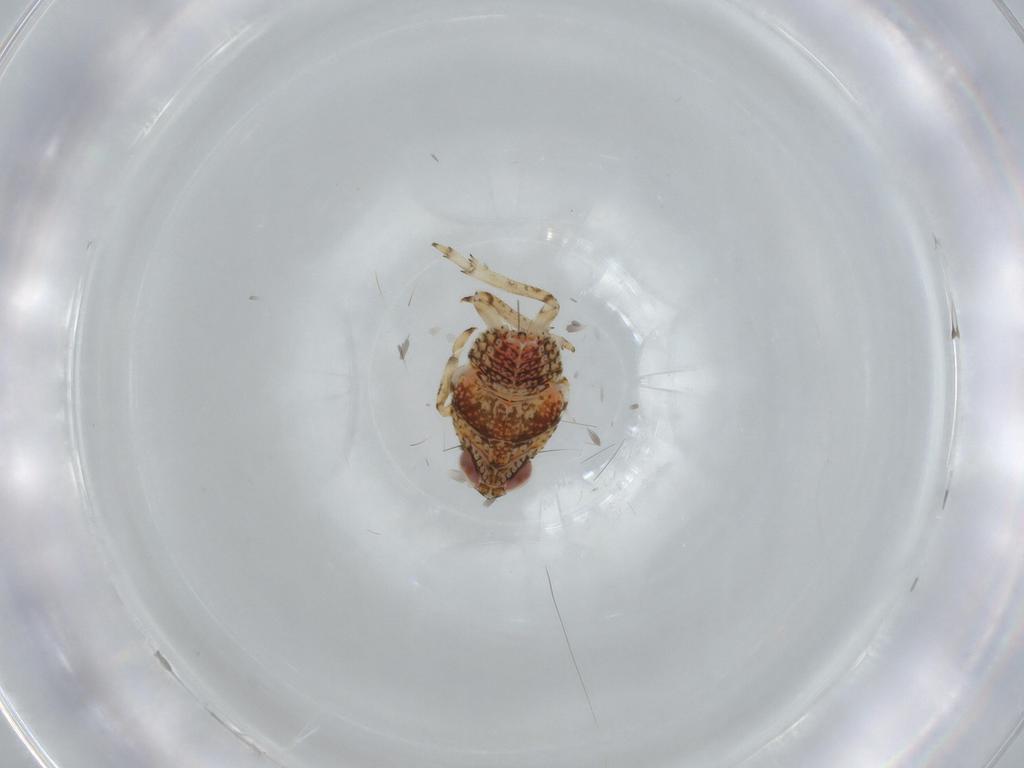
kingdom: Animalia
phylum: Arthropoda
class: Insecta
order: Hemiptera
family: Issidae
